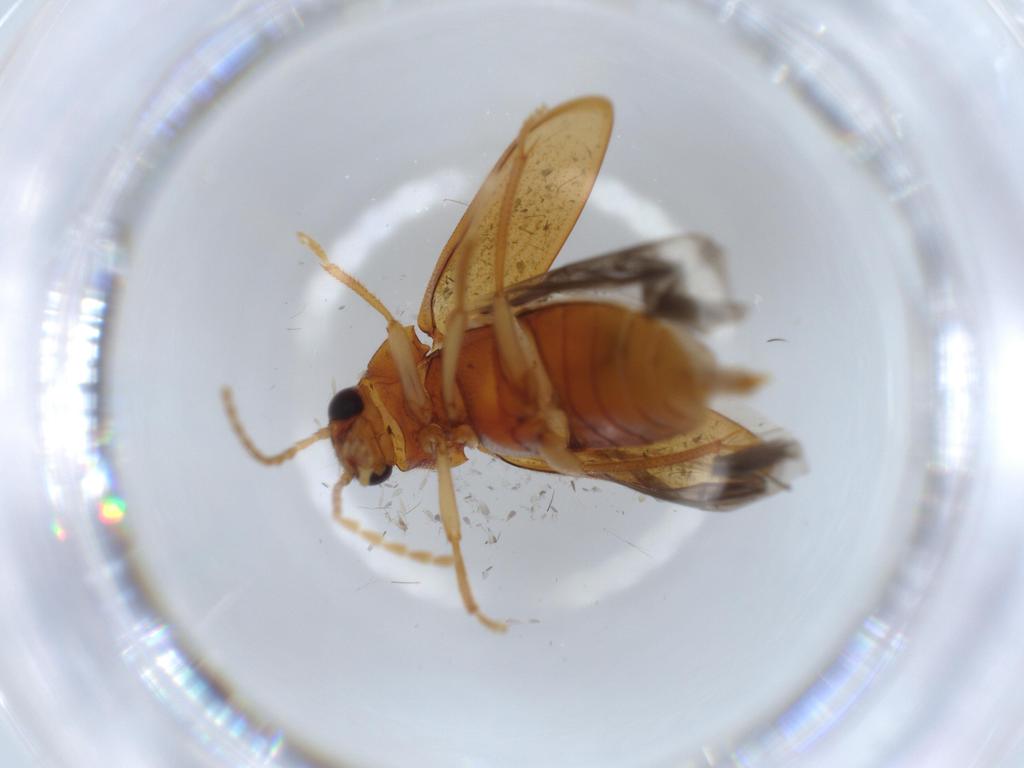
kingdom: Animalia
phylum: Arthropoda
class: Insecta
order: Coleoptera
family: Ptilodactylidae
